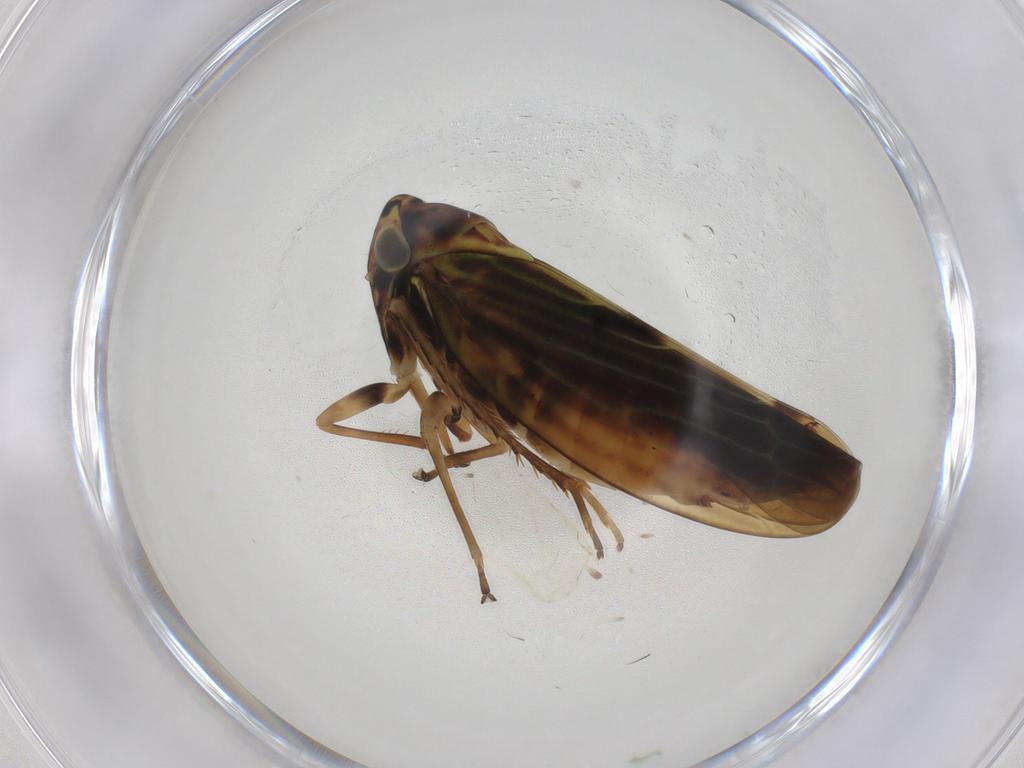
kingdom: Animalia
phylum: Arthropoda
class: Insecta
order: Hemiptera
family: Cicadellidae
